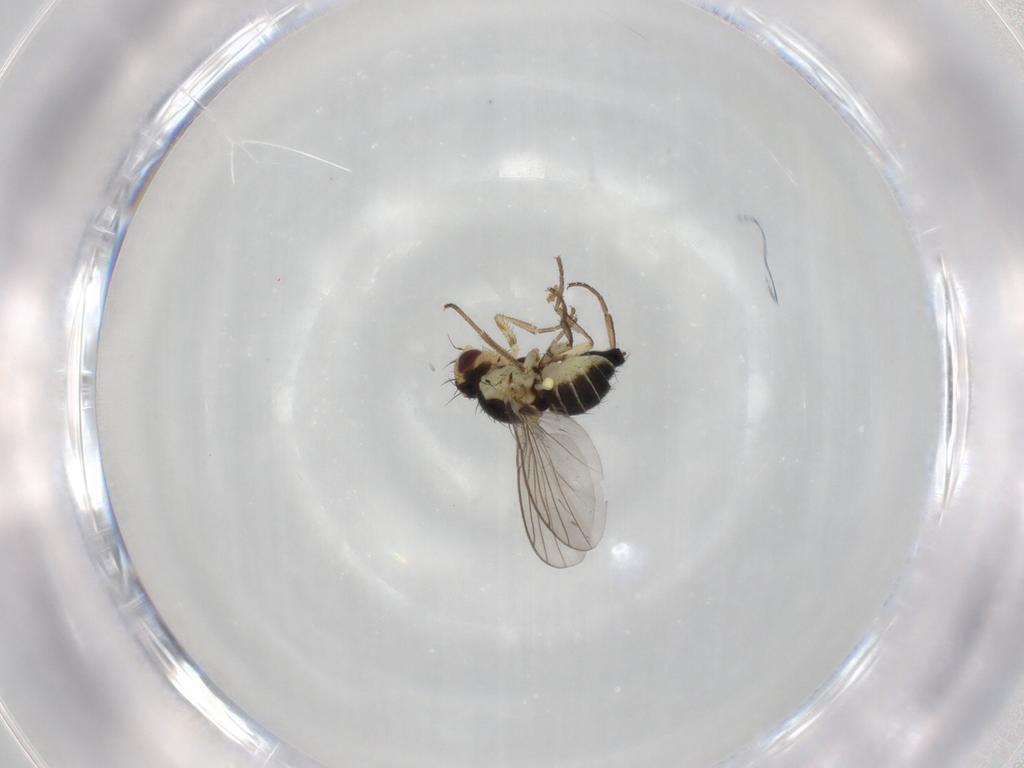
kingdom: Animalia
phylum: Arthropoda
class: Insecta
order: Diptera
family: Agromyzidae
